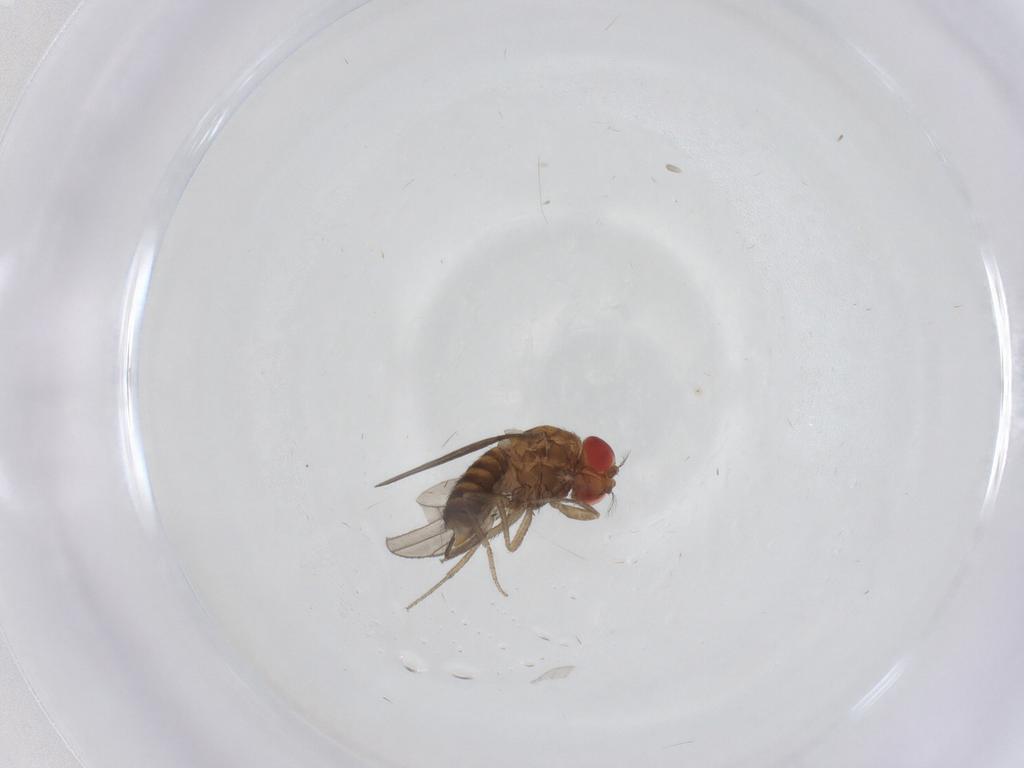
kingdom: Animalia
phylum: Arthropoda
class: Insecta
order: Diptera
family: Drosophilidae
